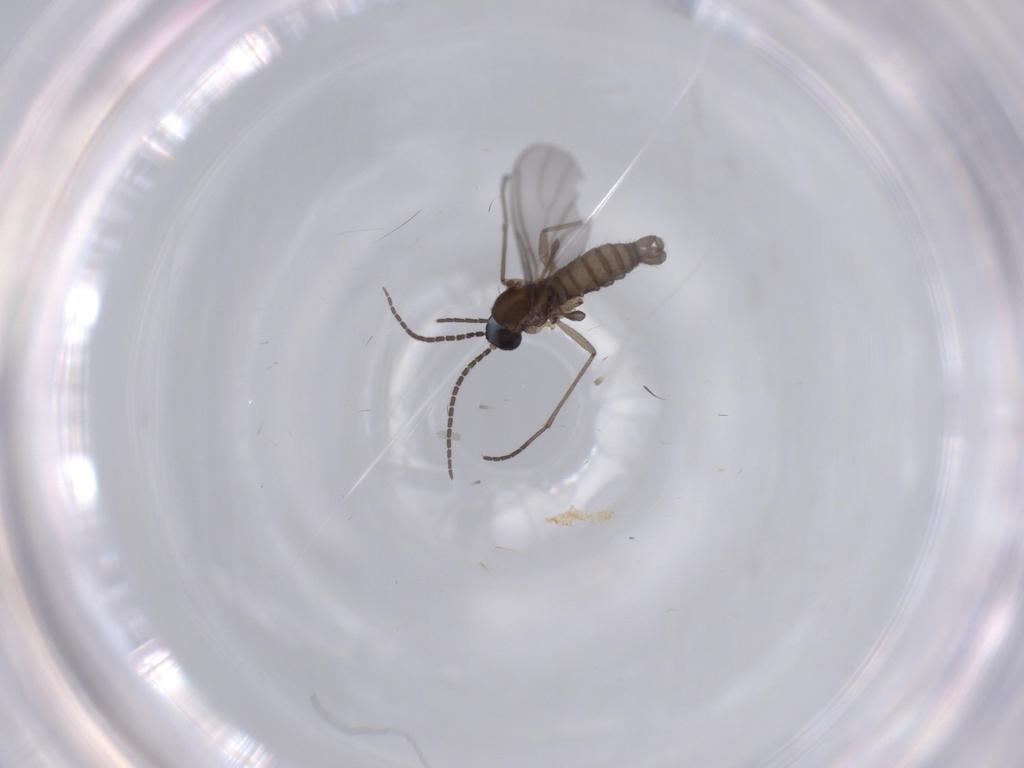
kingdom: Animalia
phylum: Arthropoda
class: Insecta
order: Diptera
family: Sciaridae
